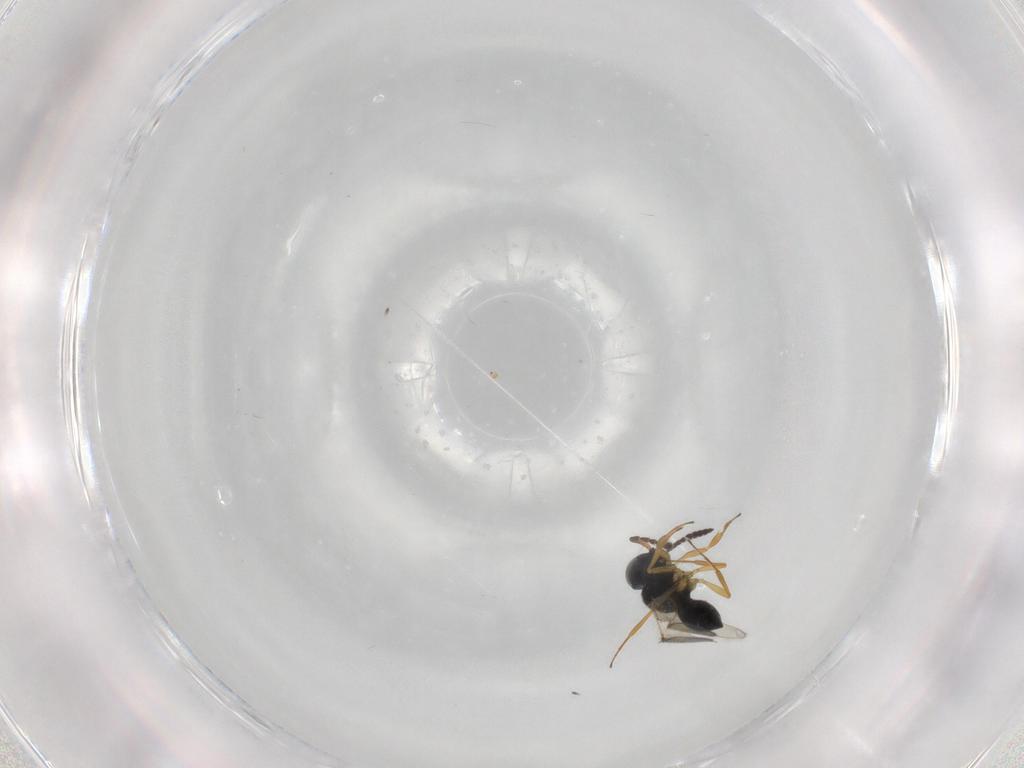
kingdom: Animalia
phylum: Arthropoda
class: Insecta
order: Hymenoptera
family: Scelionidae
